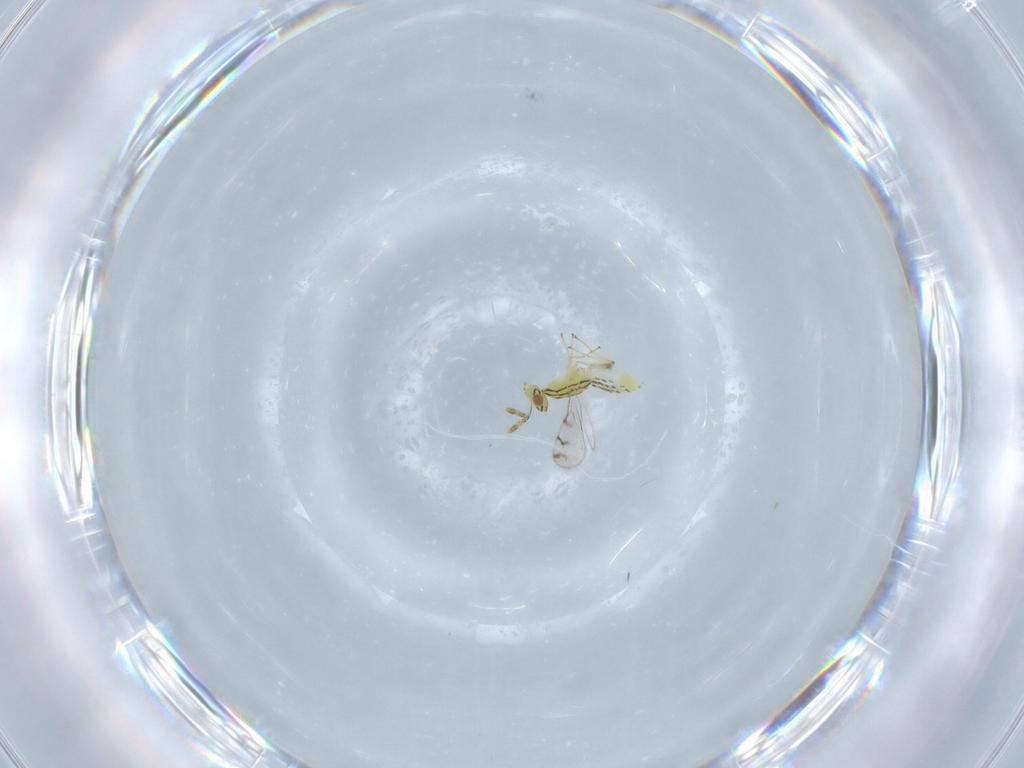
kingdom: Animalia
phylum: Arthropoda
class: Insecta
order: Hymenoptera
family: Eulophidae
